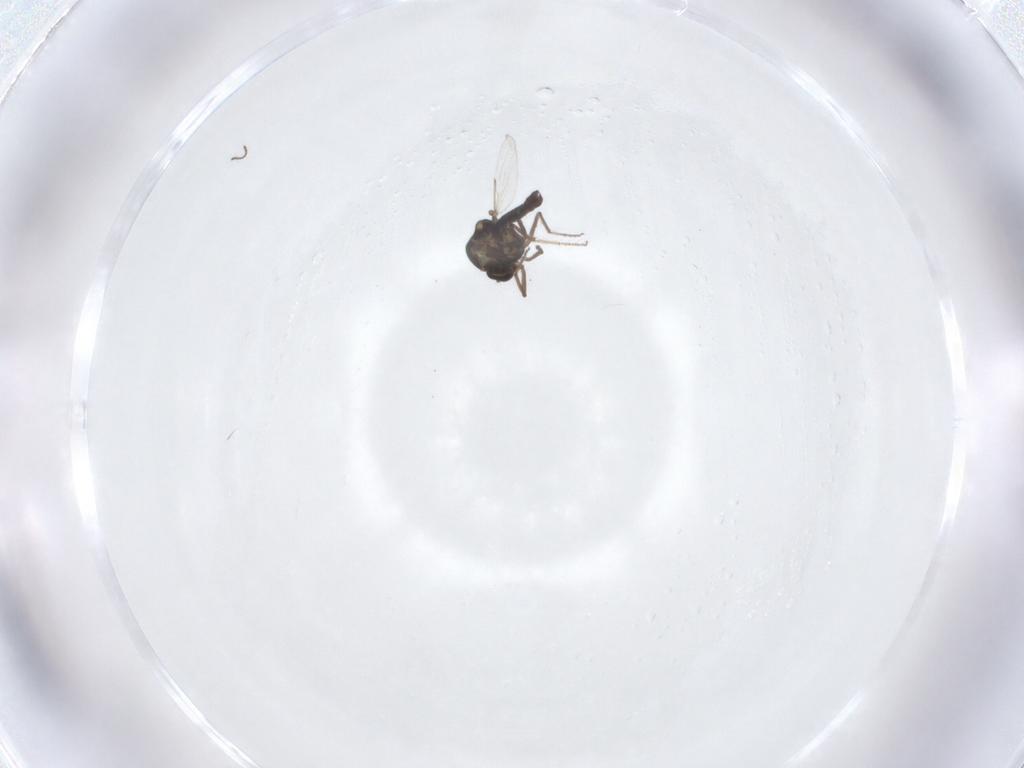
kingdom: Animalia
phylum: Arthropoda
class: Insecta
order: Diptera
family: Ceratopogonidae
